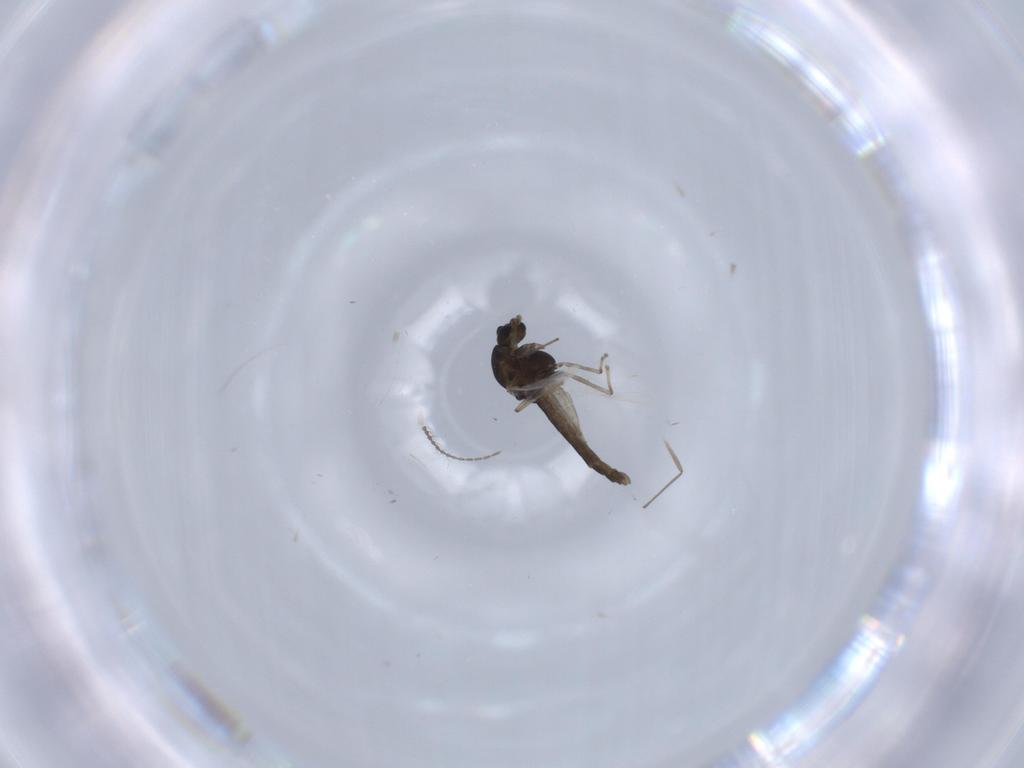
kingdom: Animalia
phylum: Arthropoda
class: Insecta
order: Diptera
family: Chironomidae
